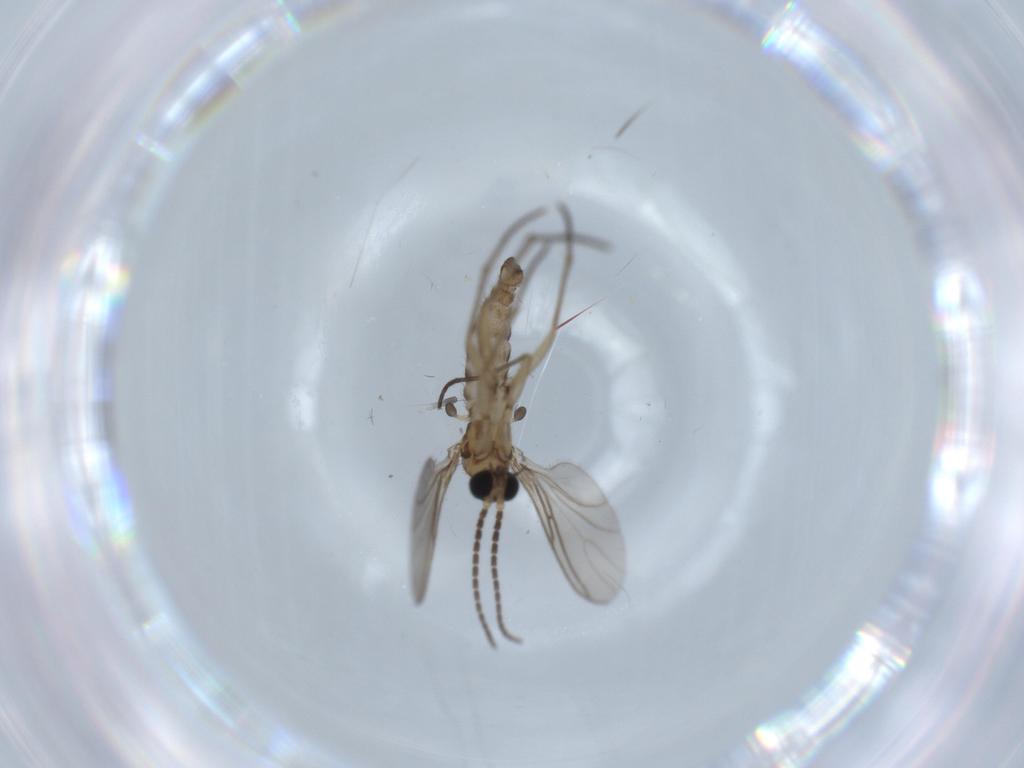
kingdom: Animalia
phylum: Arthropoda
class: Insecta
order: Diptera
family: Sciaridae
